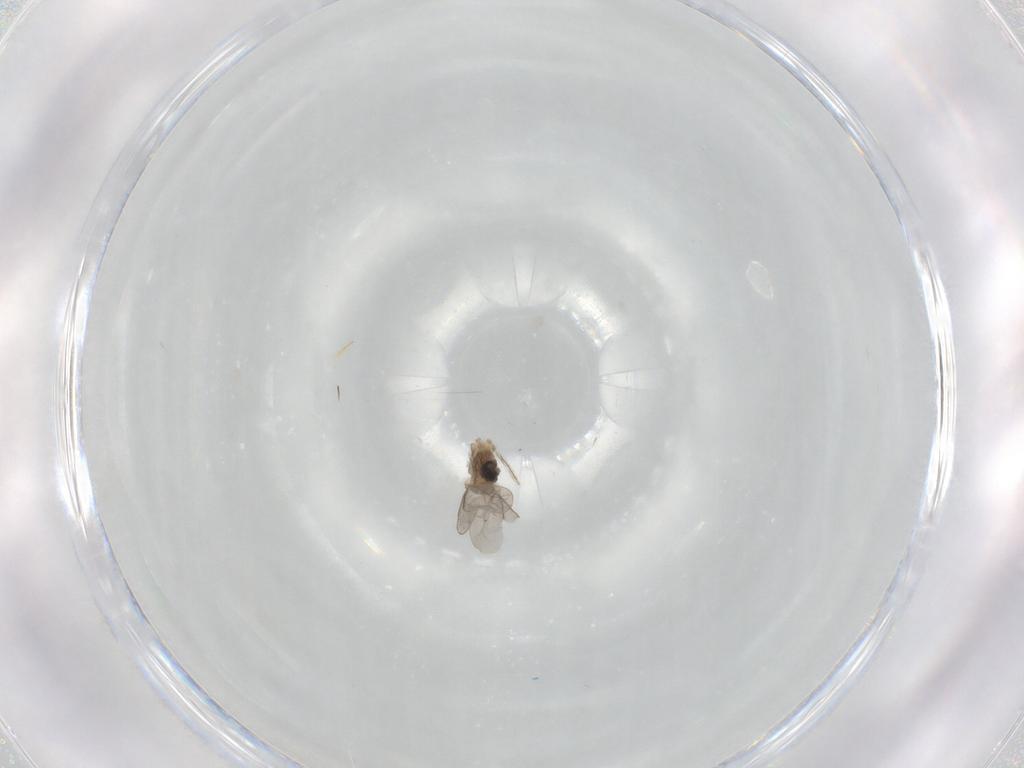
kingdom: Animalia
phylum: Arthropoda
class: Insecta
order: Diptera
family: Cecidomyiidae
